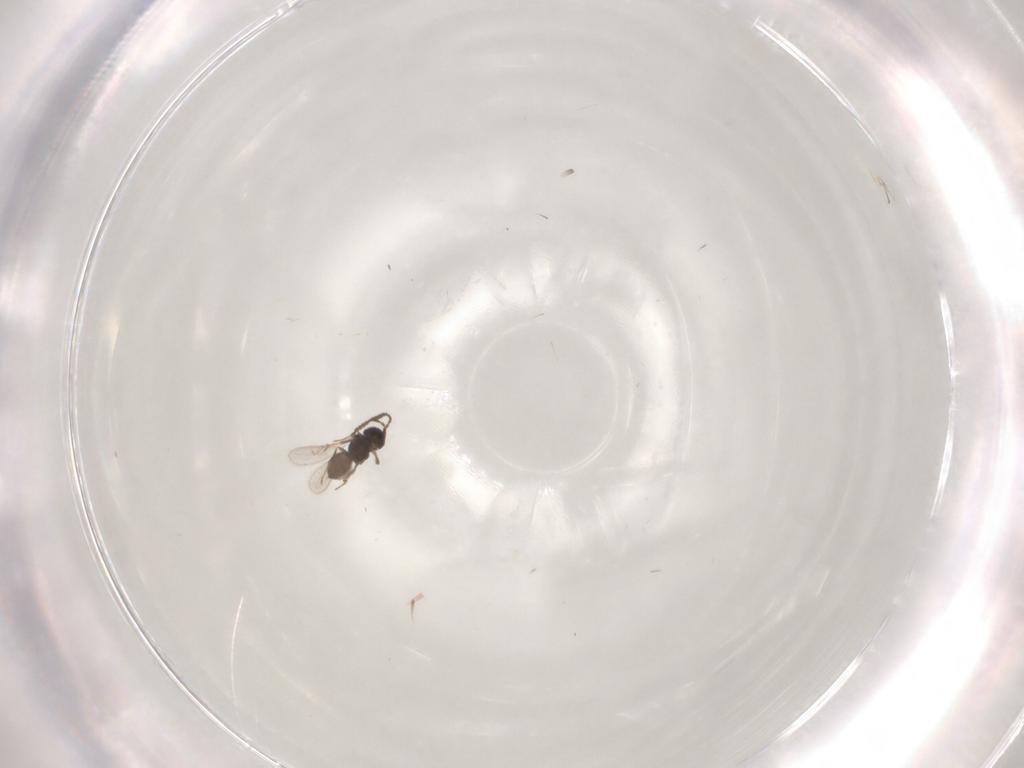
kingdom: Animalia
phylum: Arthropoda
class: Insecta
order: Hymenoptera
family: Scelionidae
